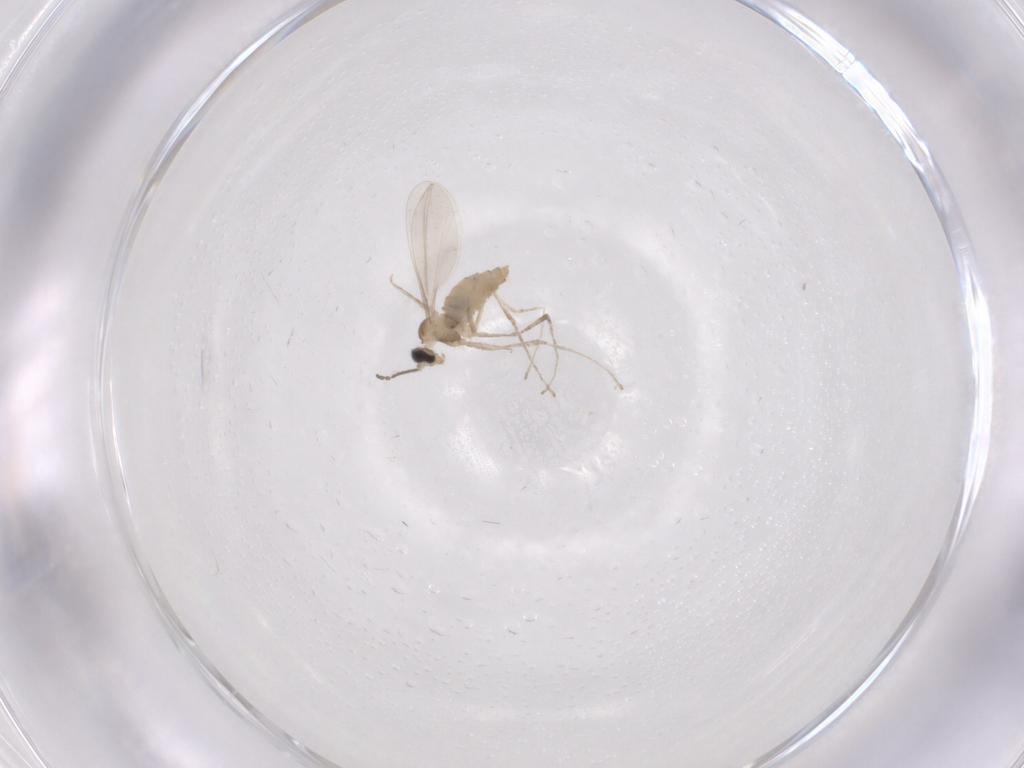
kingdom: Animalia
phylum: Arthropoda
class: Insecta
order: Diptera
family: Cecidomyiidae
